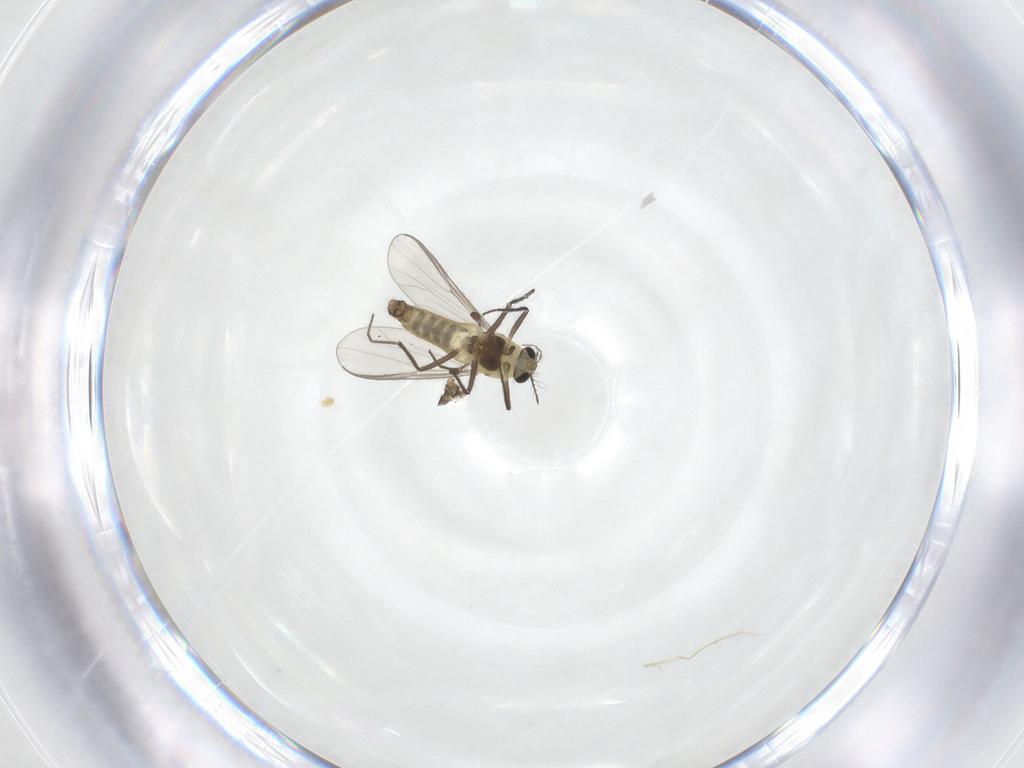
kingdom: Animalia
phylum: Arthropoda
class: Insecta
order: Diptera
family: Chironomidae
